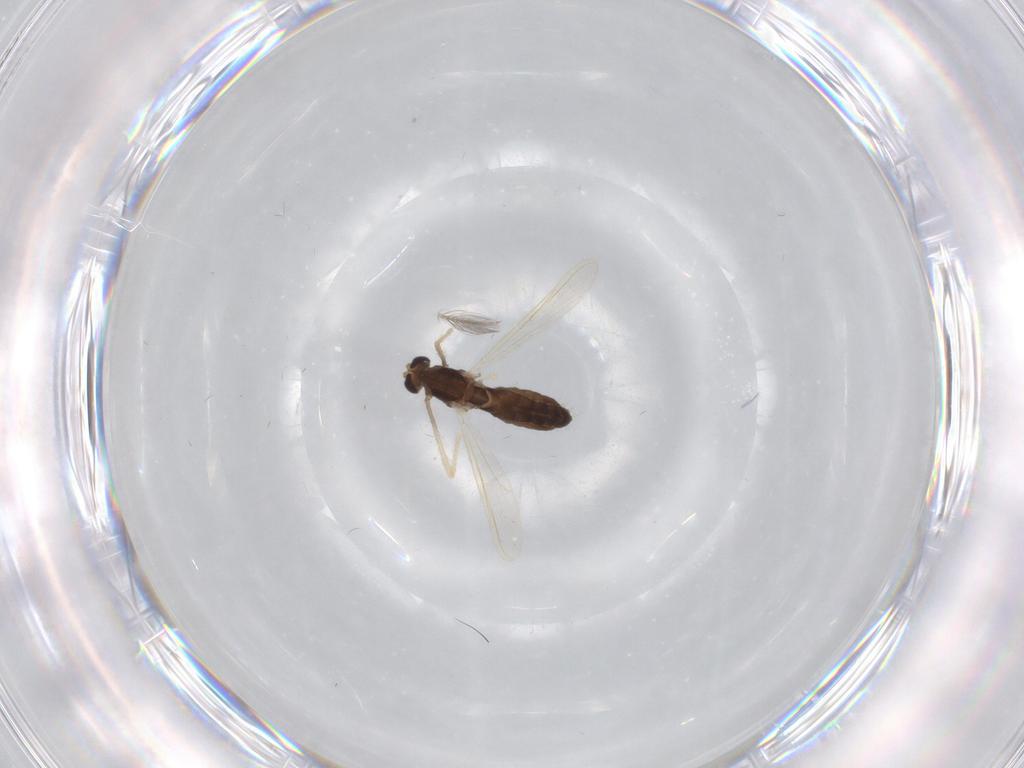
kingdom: Animalia
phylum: Arthropoda
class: Insecta
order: Diptera
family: Chironomidae
